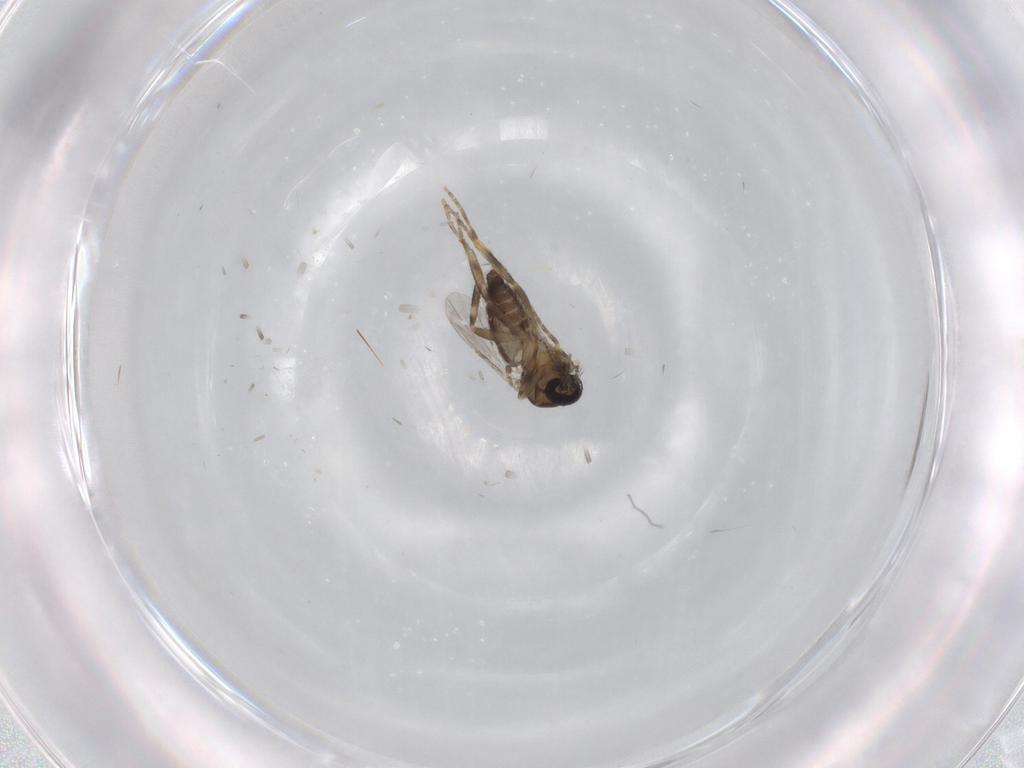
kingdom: Animalia
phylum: Arthropoda
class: Insecta
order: Diptera
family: Ceratopogonidae
